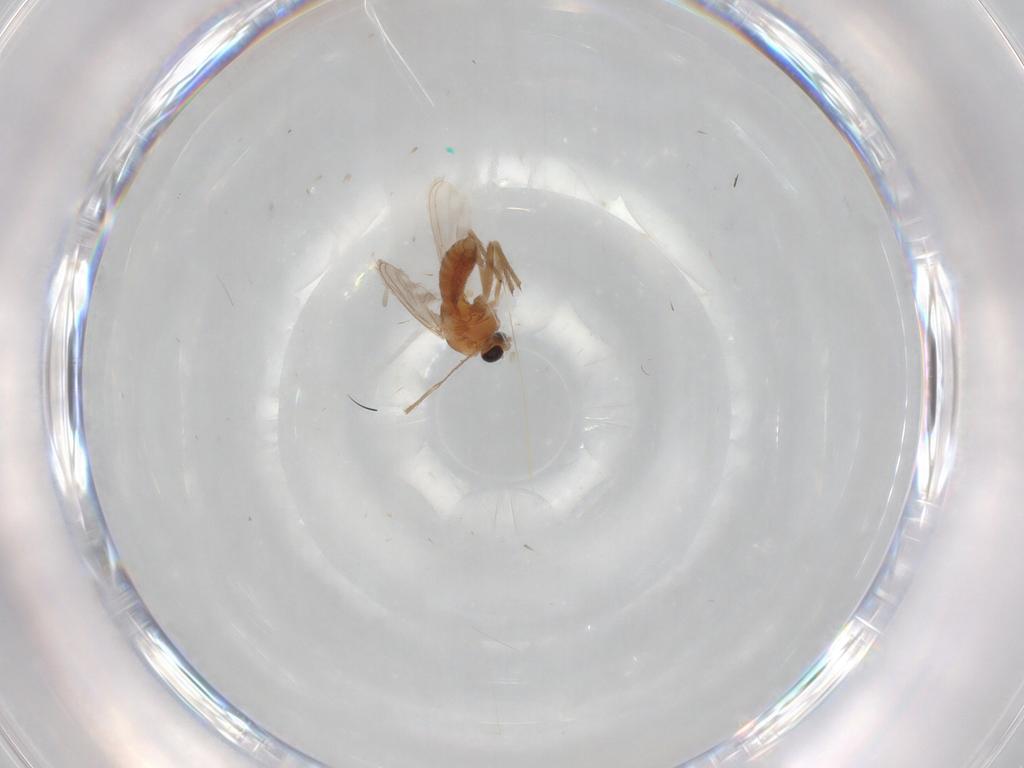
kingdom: Animalia
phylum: Arthropoda
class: Insecta
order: Diptera
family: Chironomidae
